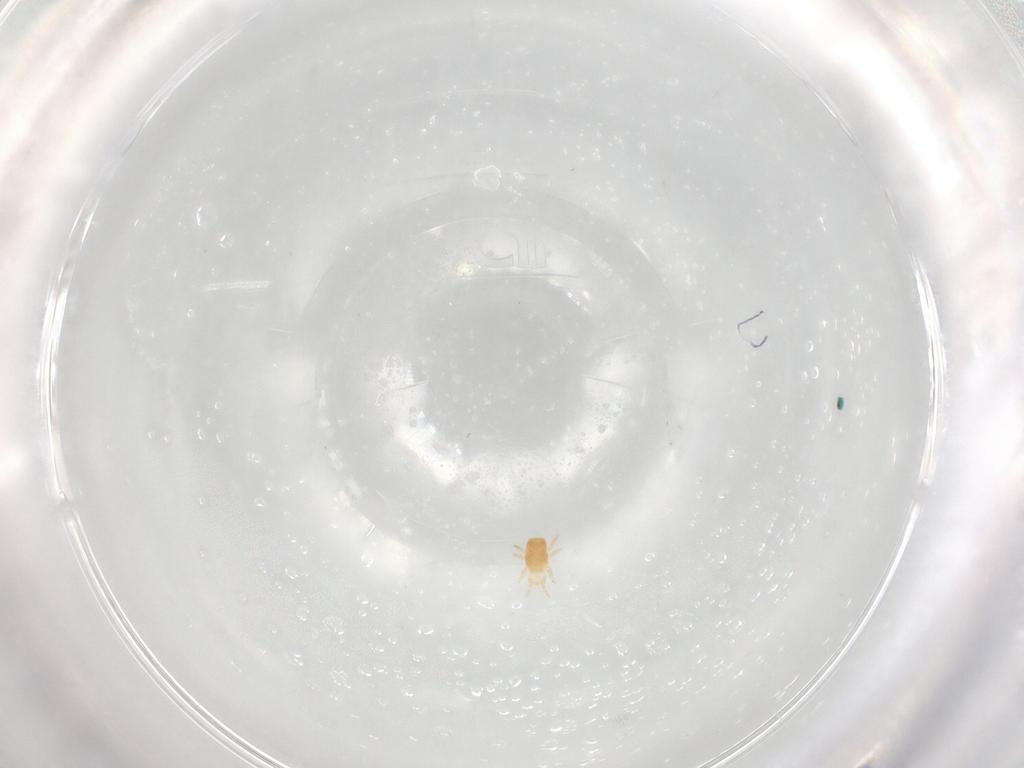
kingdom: Animalia
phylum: Arthropoda
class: Arachnida
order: Mesostigmata
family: Digamasellidae
